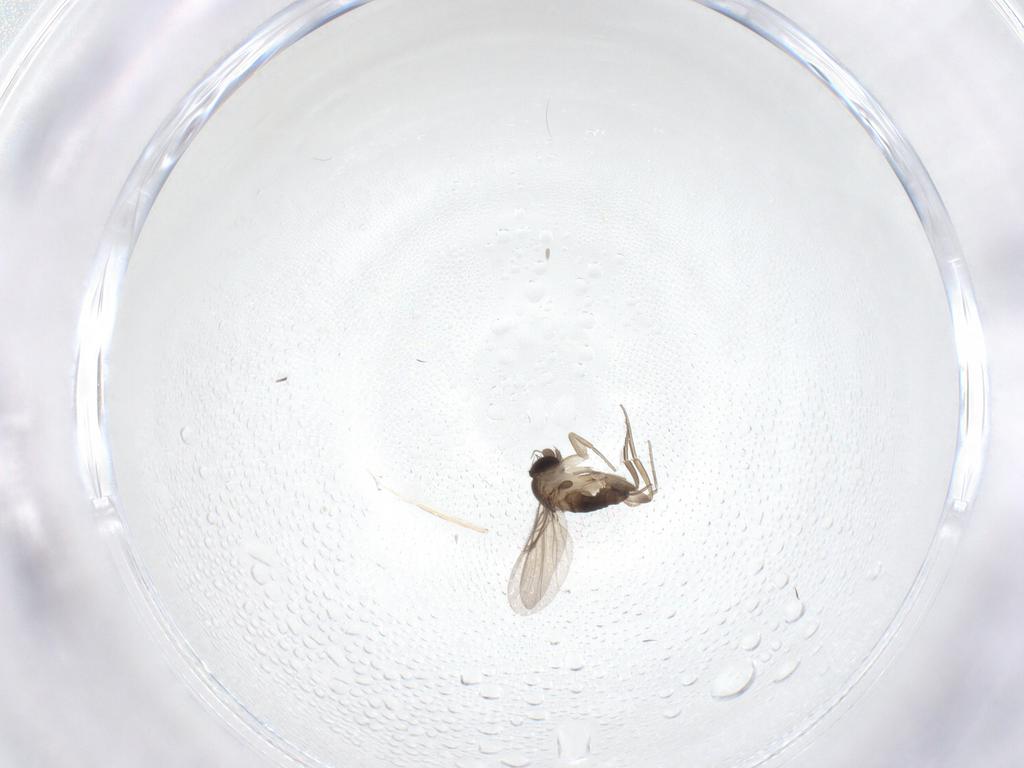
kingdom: Animalia
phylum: Arthropoda
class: Insecta
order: Diptera
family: Phoridae
